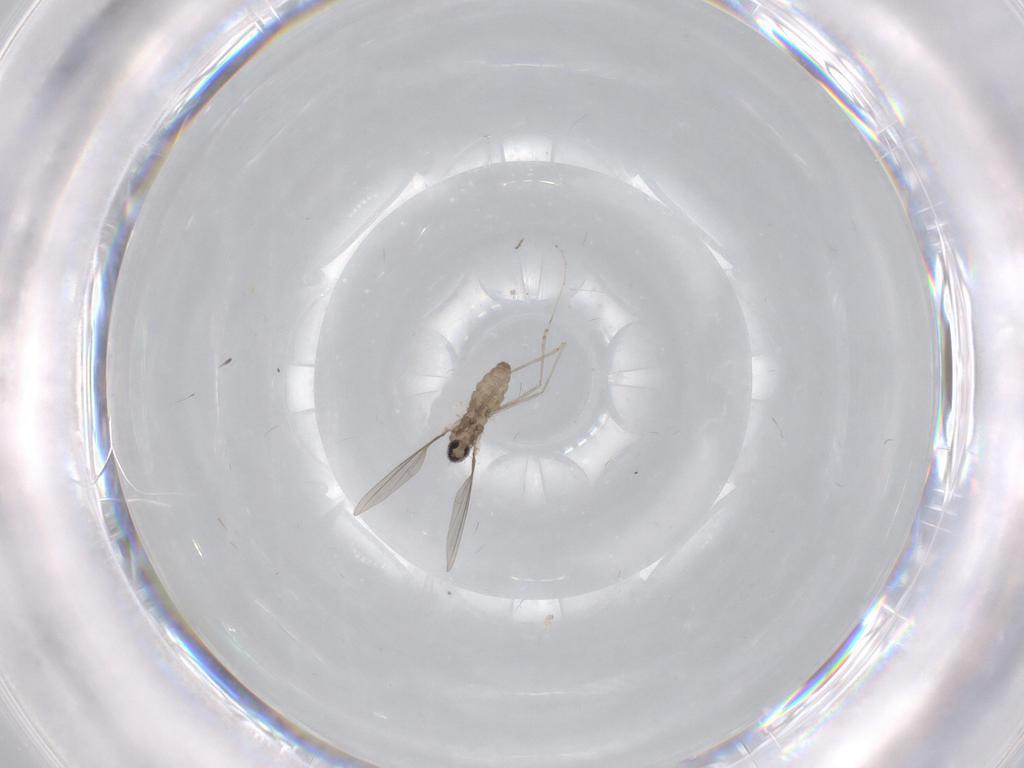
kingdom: Animalia
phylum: Arthropoda
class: Insecta
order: Diptera
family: Cecidomyiidae
